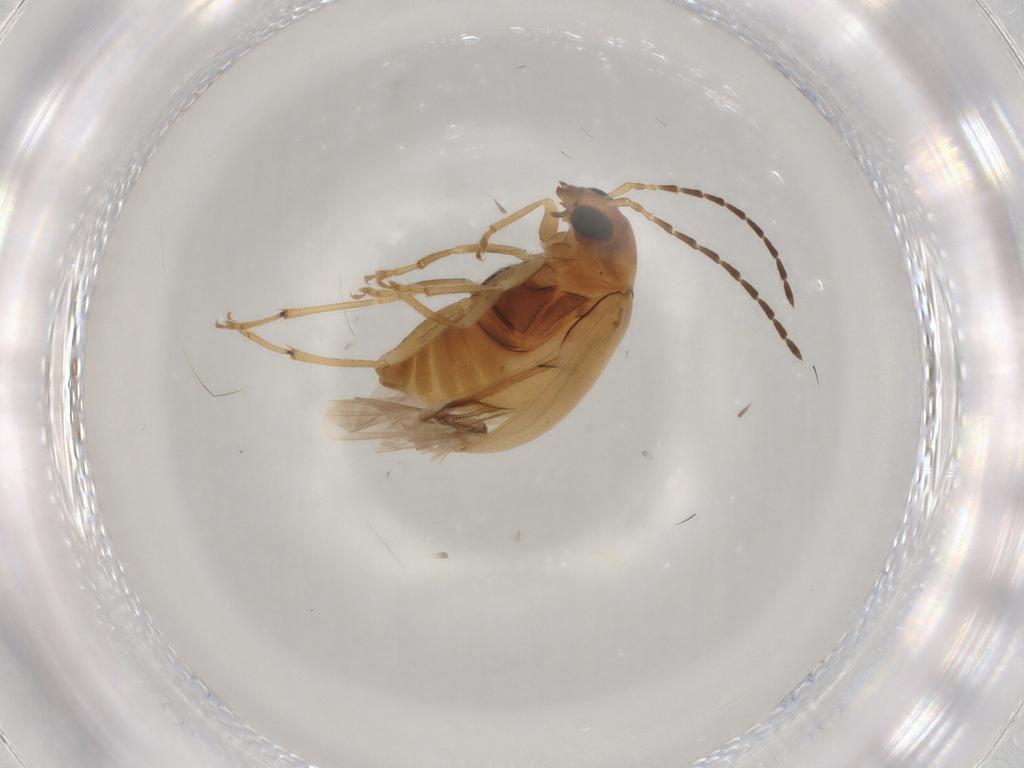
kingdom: Animalia
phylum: Arthropoda
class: Insecta
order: Coleoptera
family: Chrysomelidae
